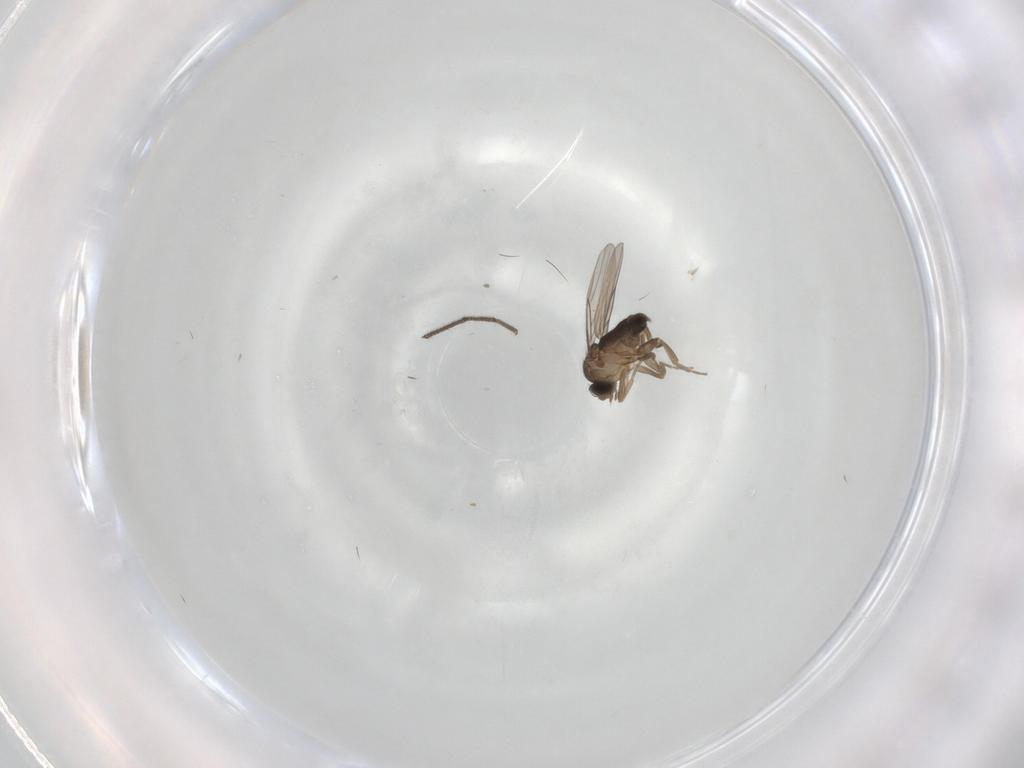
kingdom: Animalia
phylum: Arthropoda
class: Insecta
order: Diptera
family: Phoridae
